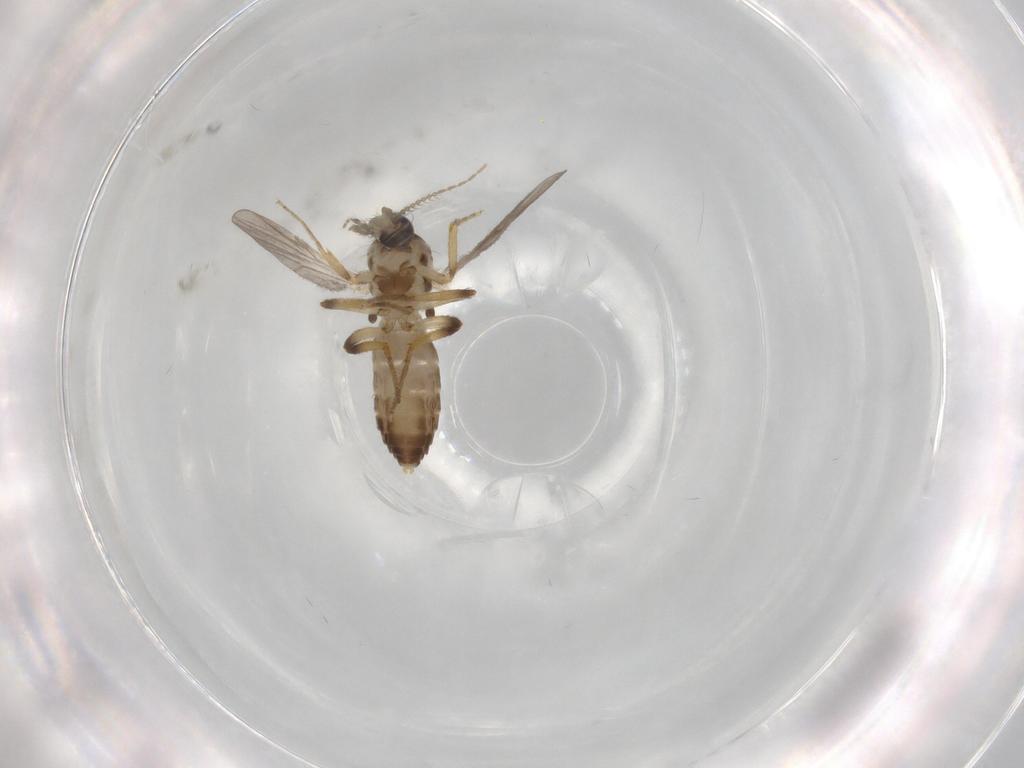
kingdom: Animalia
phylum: Arthropoda
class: Insecta
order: Diptera
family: Ceratopogonidae
